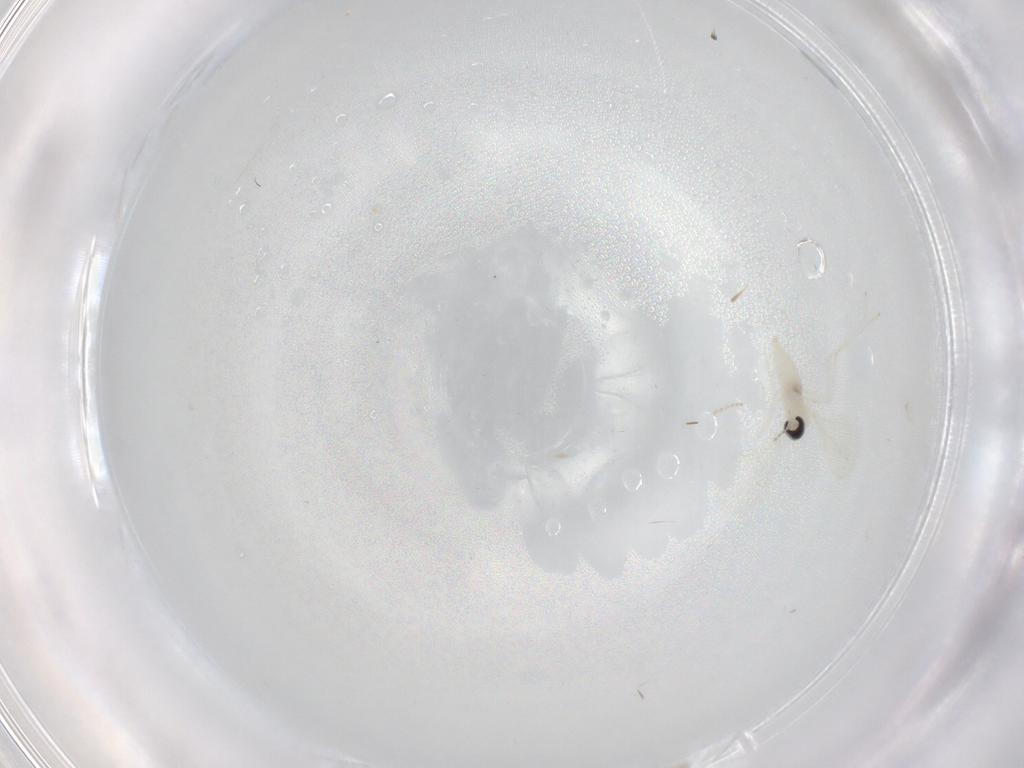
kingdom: Animalia
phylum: Arthropoda
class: Insecta
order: Diptera
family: Cecidomyiidae
